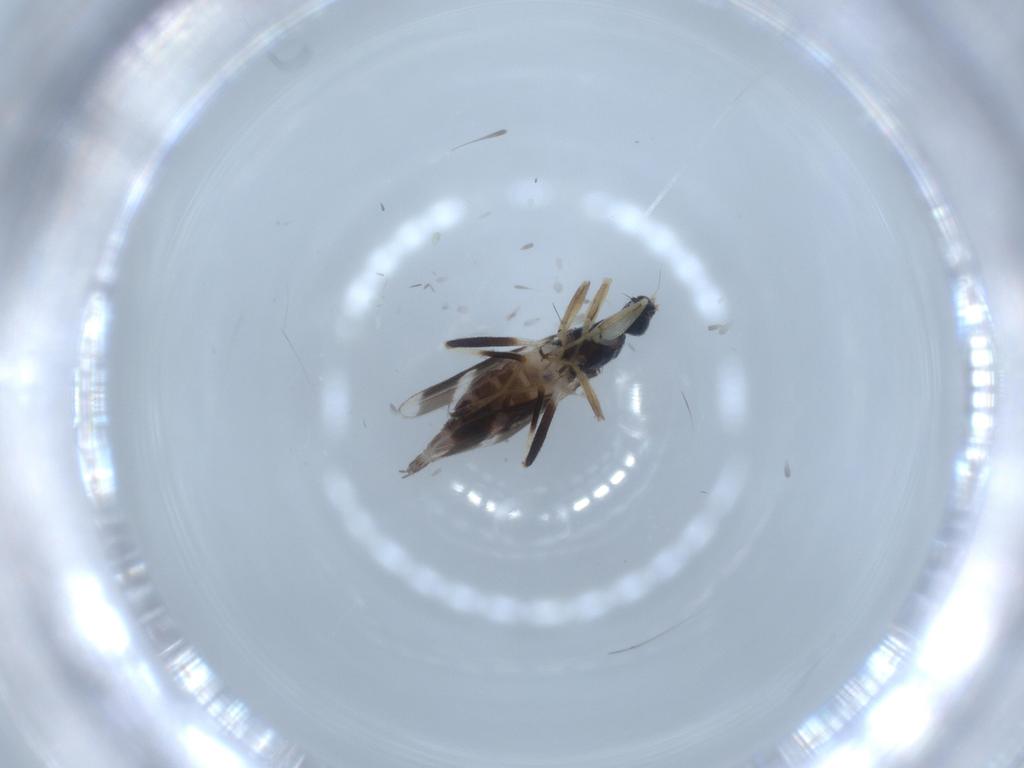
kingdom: Animalia
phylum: Arthropoda
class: Insecta
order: Diptera
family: Hybotidae
